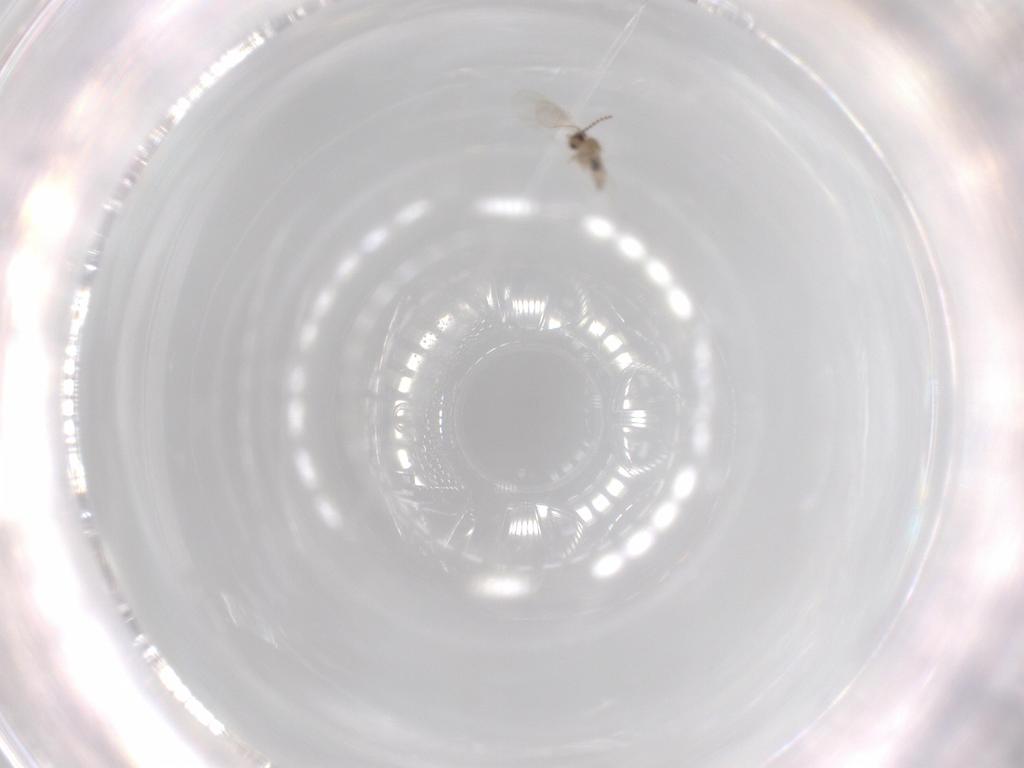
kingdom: Animalia
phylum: Arthropoda
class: Insecta
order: Diptera
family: Cecidomyiidae
